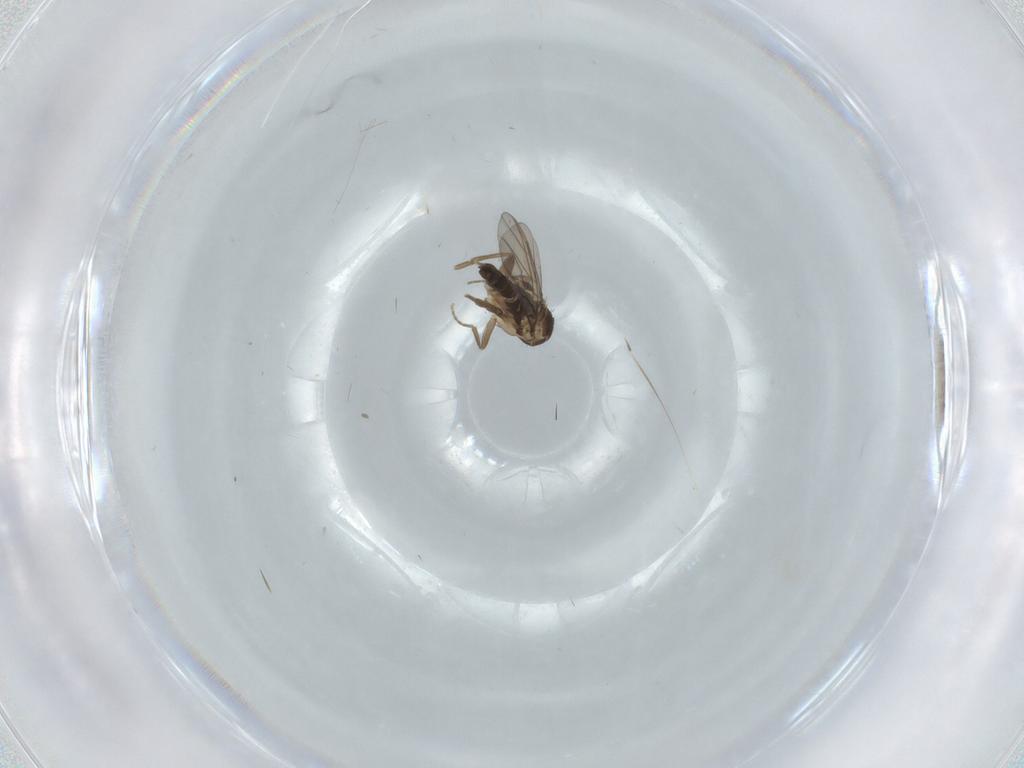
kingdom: Animalia
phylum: Arthropoda
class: Insecta
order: Diptera
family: Phoridae
